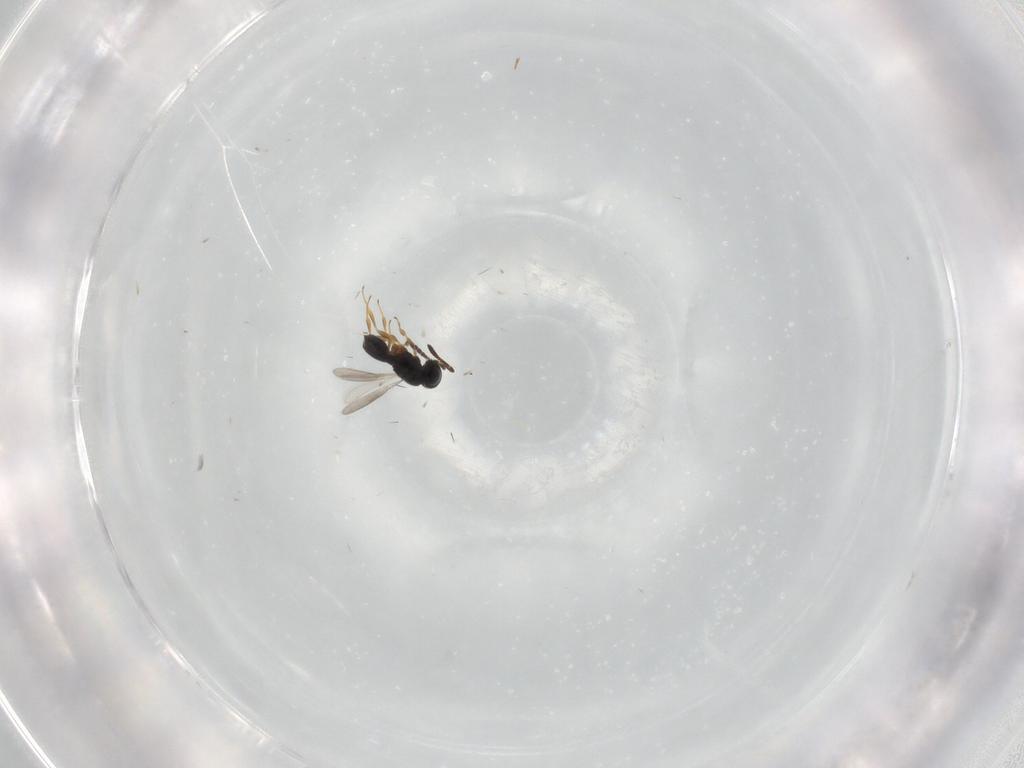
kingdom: Animalia
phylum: Arthropoda
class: Insecta
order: Hymenoptera
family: Scelionidae
